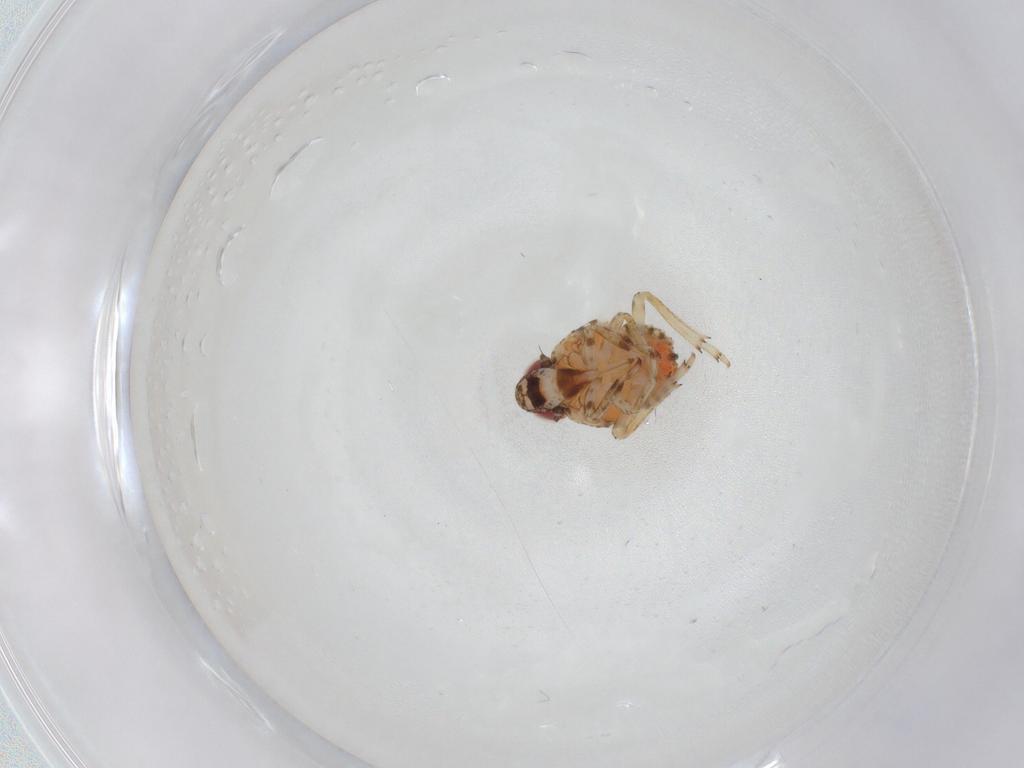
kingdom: Animalia
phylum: Arthropoda
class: Insecta
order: Hemiptera
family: Issidae
